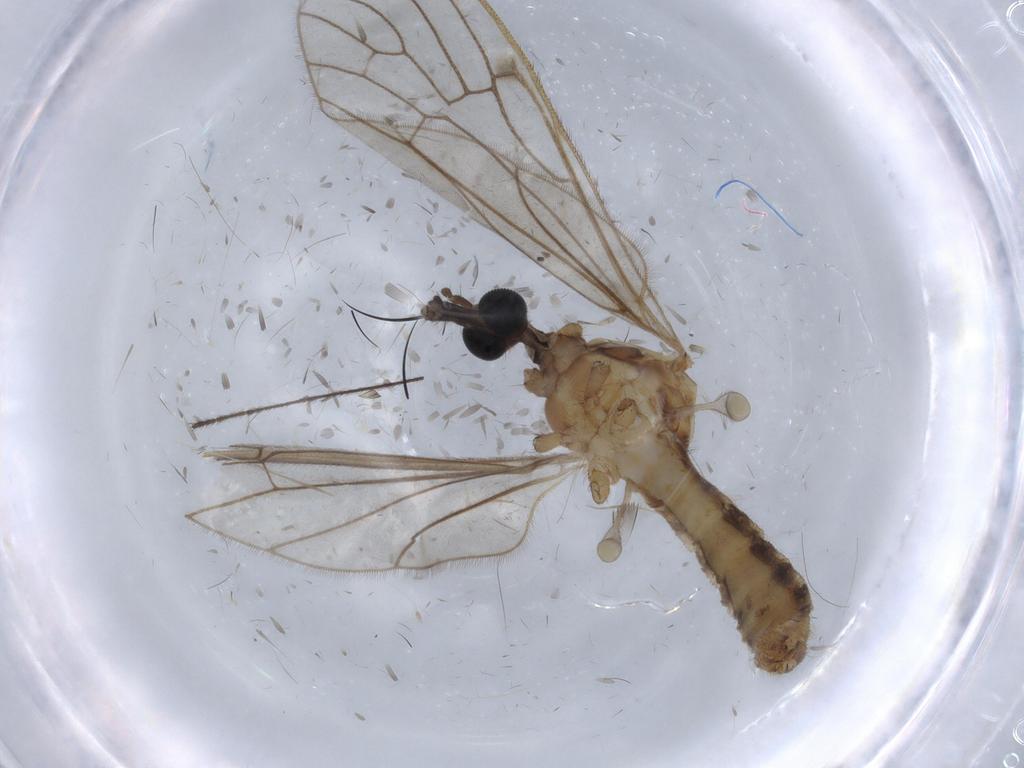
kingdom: Animalia
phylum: Arthropoda
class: Insecta
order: Diptera
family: Chironomidae
